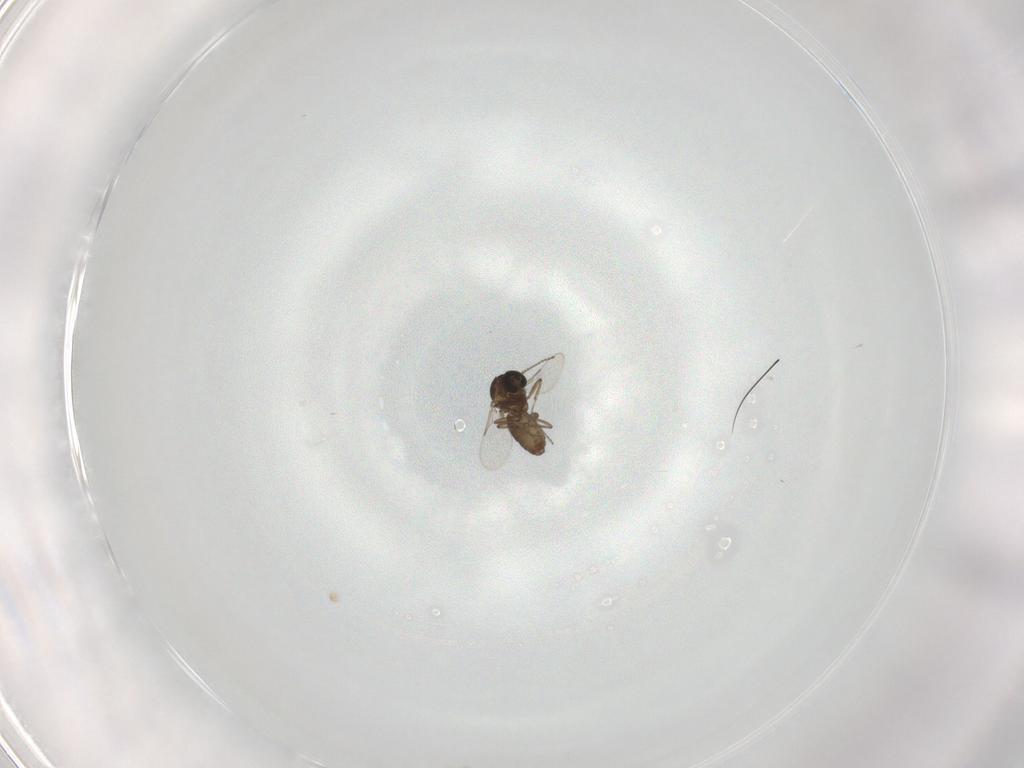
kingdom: Animalia
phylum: Arthropoda
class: Insecta
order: Diptera
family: Ceratopogonidae
